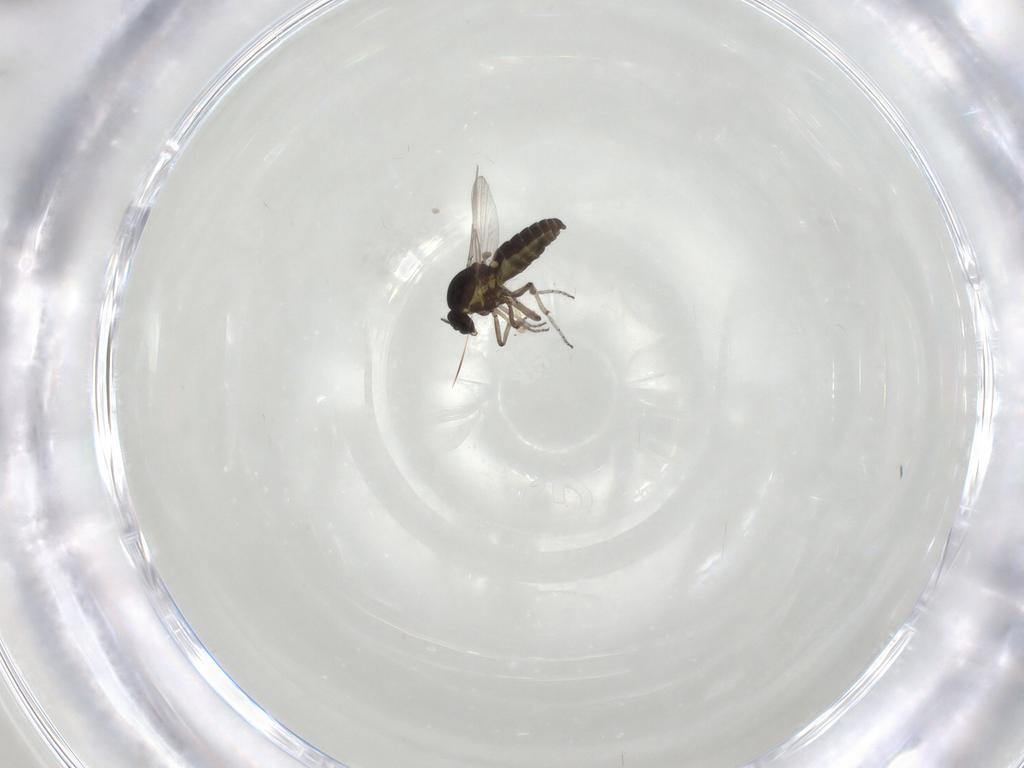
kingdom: Animalia
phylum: Arthropoda
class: Insecta
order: Diptera
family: Ceratopogonidae
